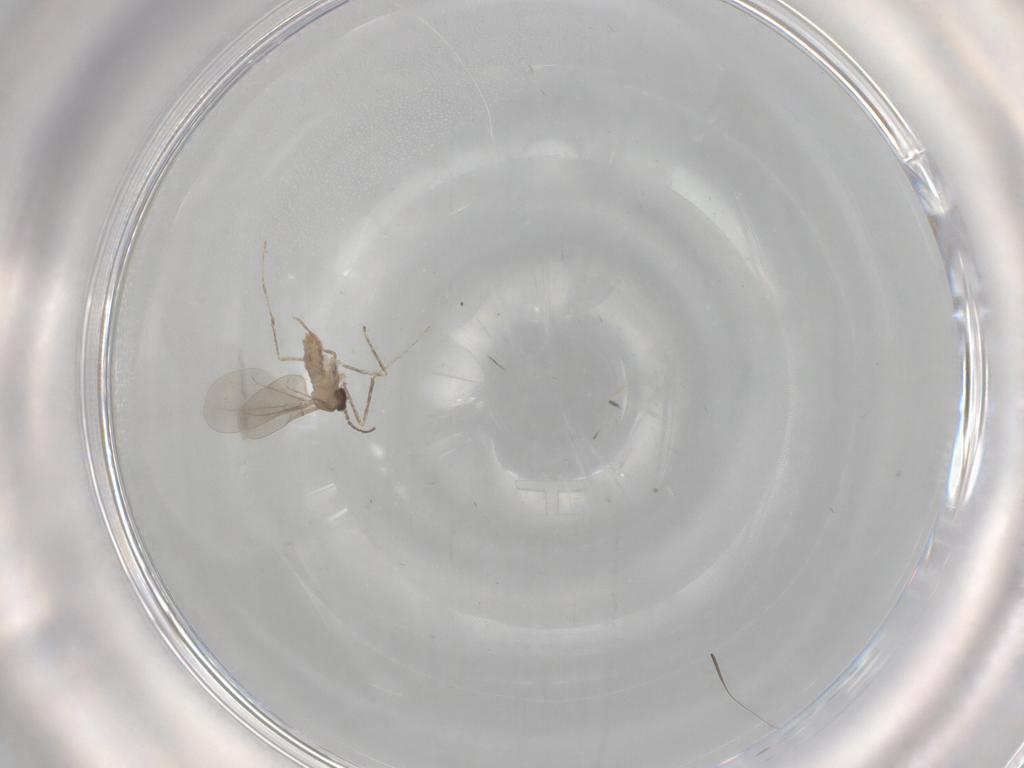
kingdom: Animalia
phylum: Arthropoda
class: Insecta
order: Diptera
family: Cecidomyiidae
